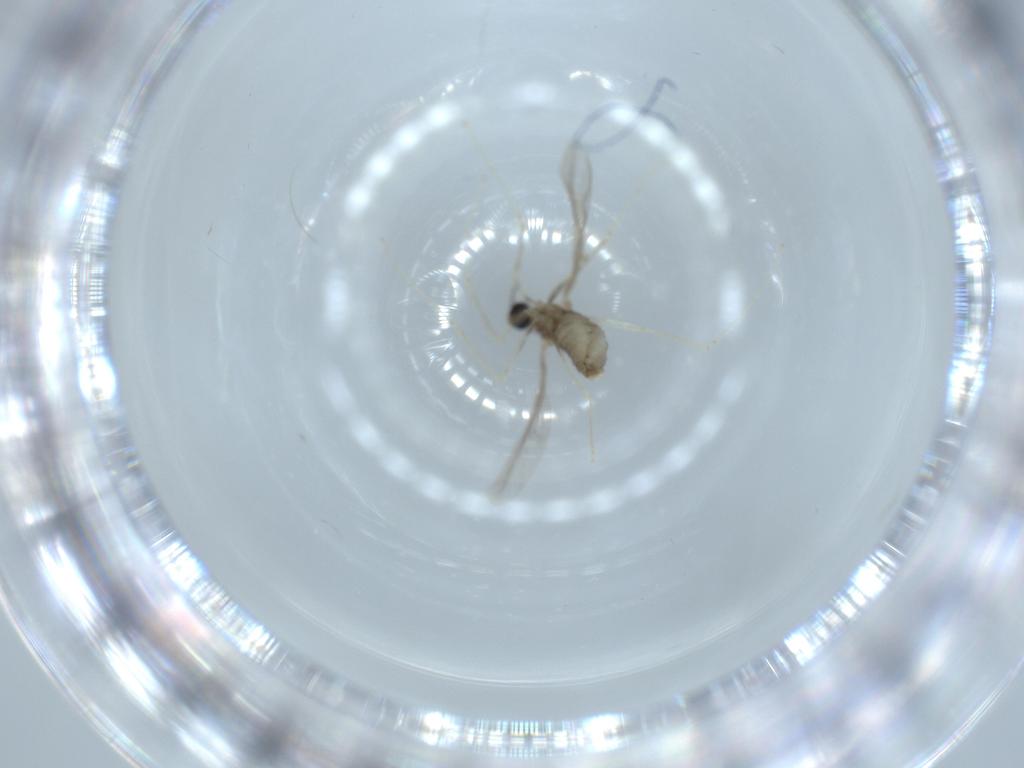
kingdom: Animalia
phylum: Arthropoda
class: Insecta
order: Diptera
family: Cecidomyiidae
